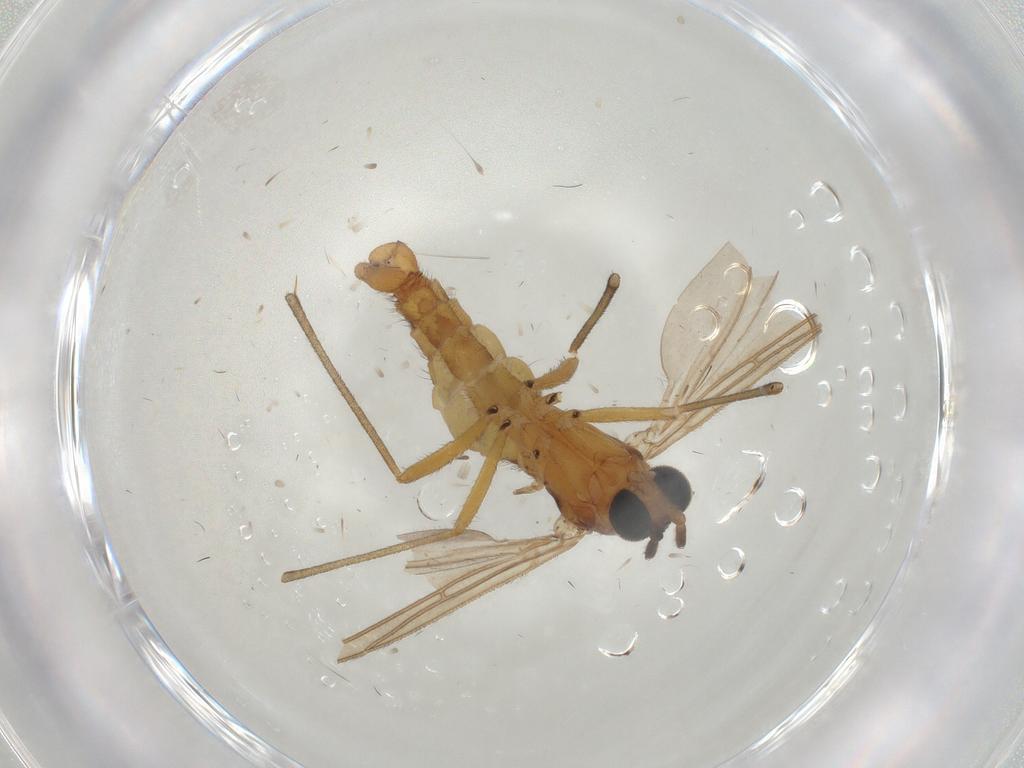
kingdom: Animalia
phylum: Arthropoda
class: Insecta
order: Diptera
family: Sciaridae
